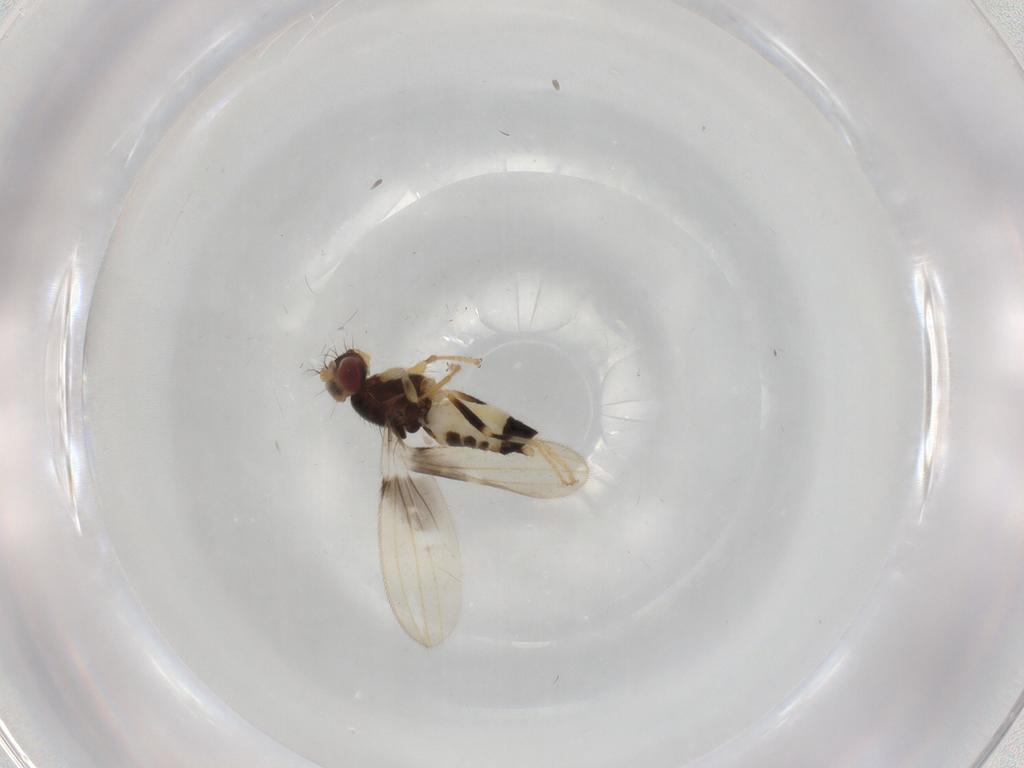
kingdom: Animalia
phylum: Arthropoda
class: Insecta
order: Diptera
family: Periscelididae
